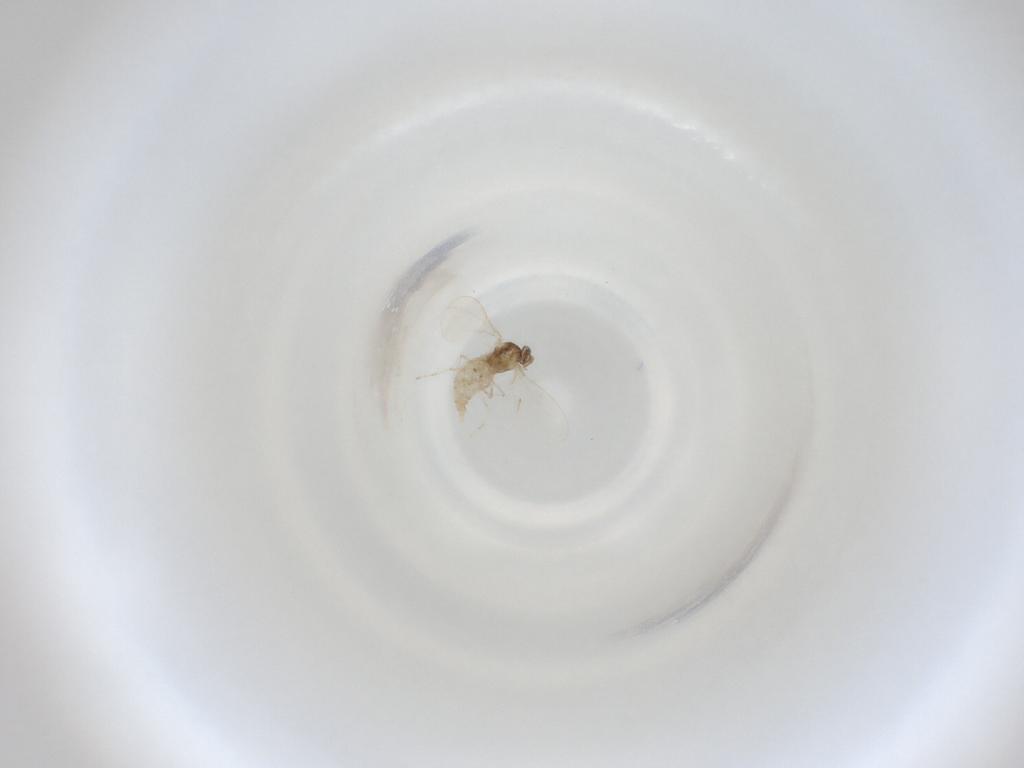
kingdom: Animalia
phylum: Arthropoda
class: Insecta
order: Diptera
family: Cecidomyiidae
